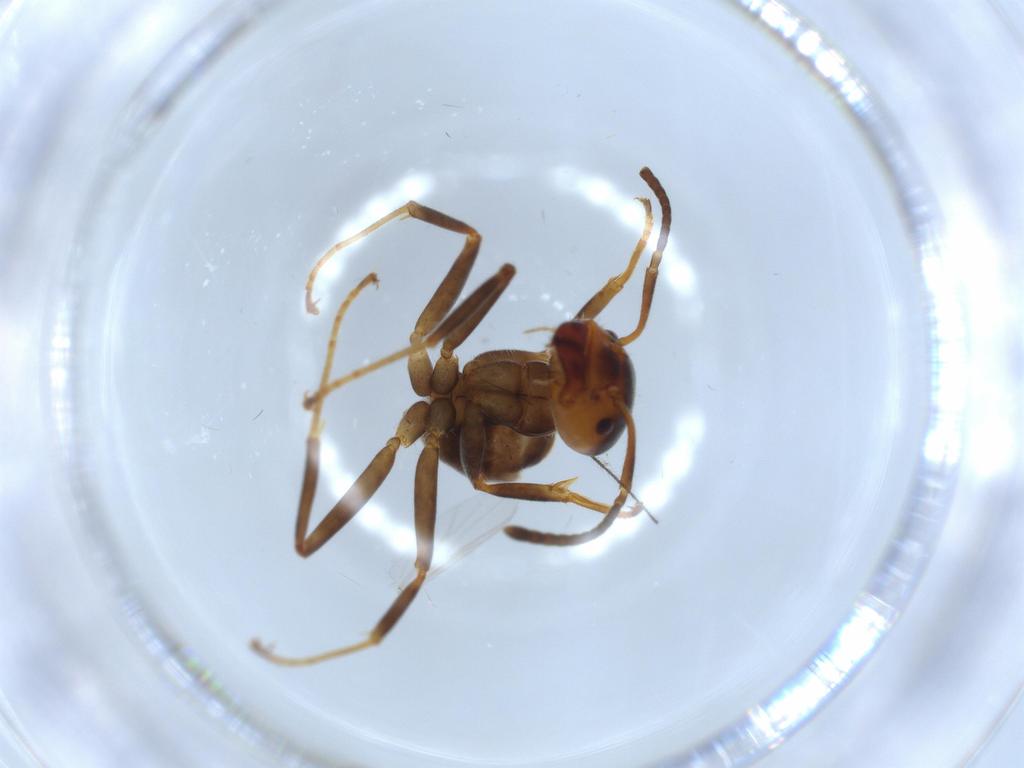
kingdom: Animalia
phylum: Arthropoda
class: Insecta
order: Hymenoptera
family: Formicidae
